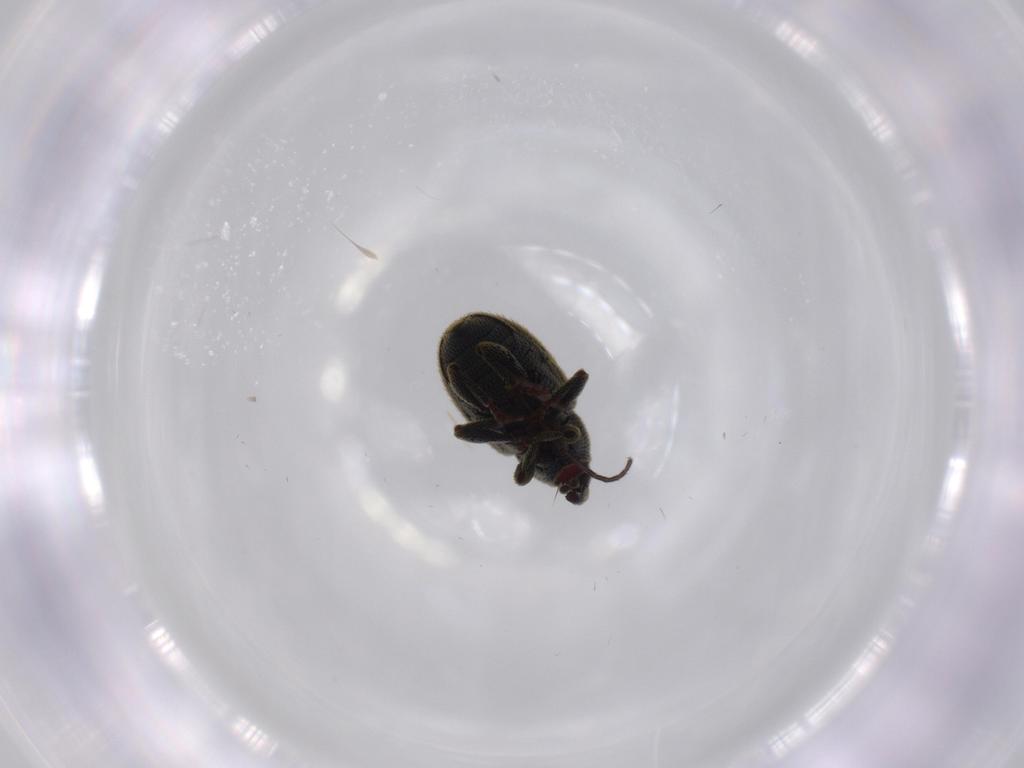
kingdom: Animalia
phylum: Arthropoda
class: Insecta
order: Coleoptera
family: Curculionidae
